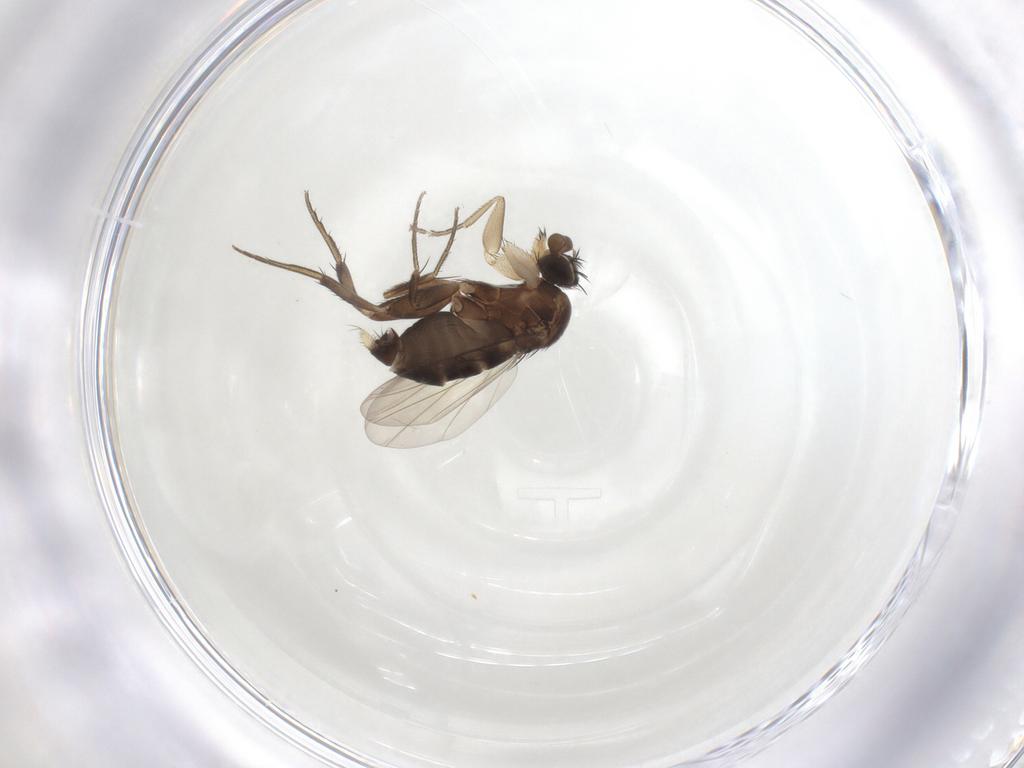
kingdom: Animalia
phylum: Arthropoda
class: Insecta
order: Diptera
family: Phoridae
